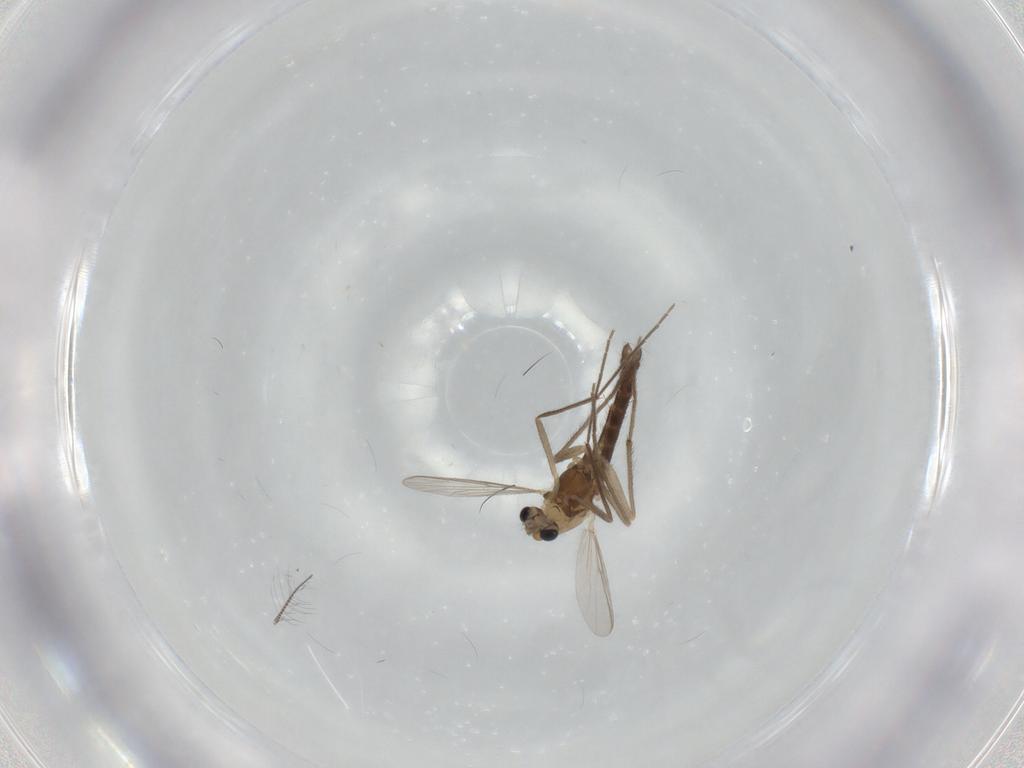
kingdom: Animalia
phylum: Arthropoda
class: Insecta
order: Diptera
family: Chironomidae
